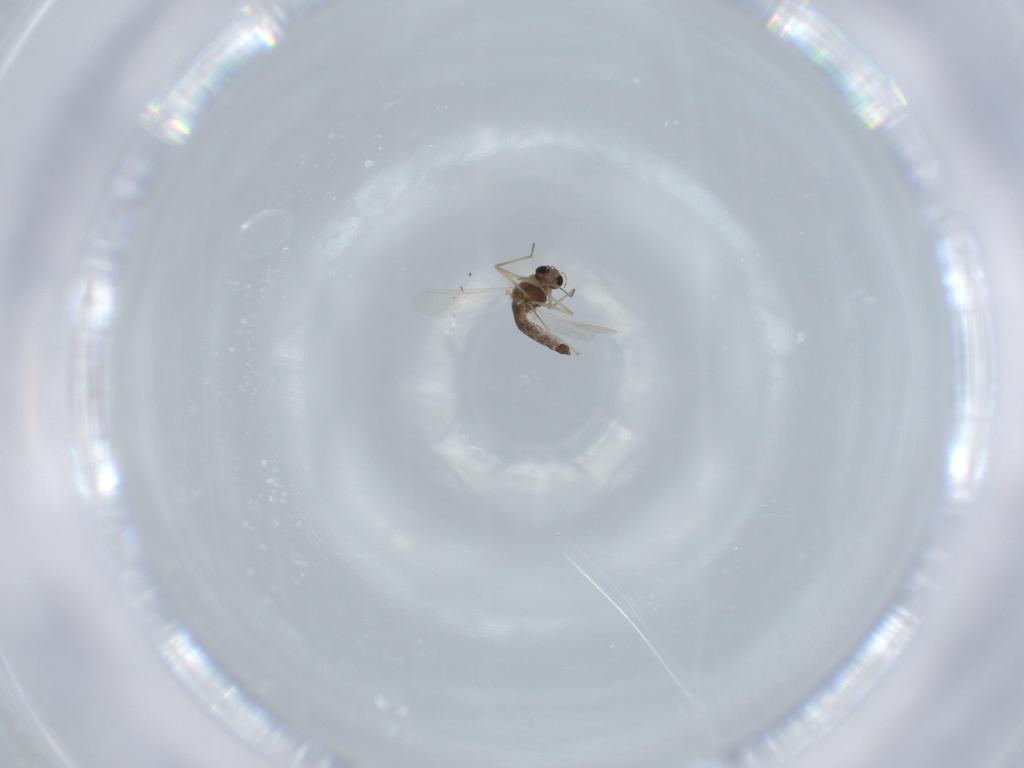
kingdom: Animalia
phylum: Arthropoda
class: Insecta
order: Diptera
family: Chironomidae
